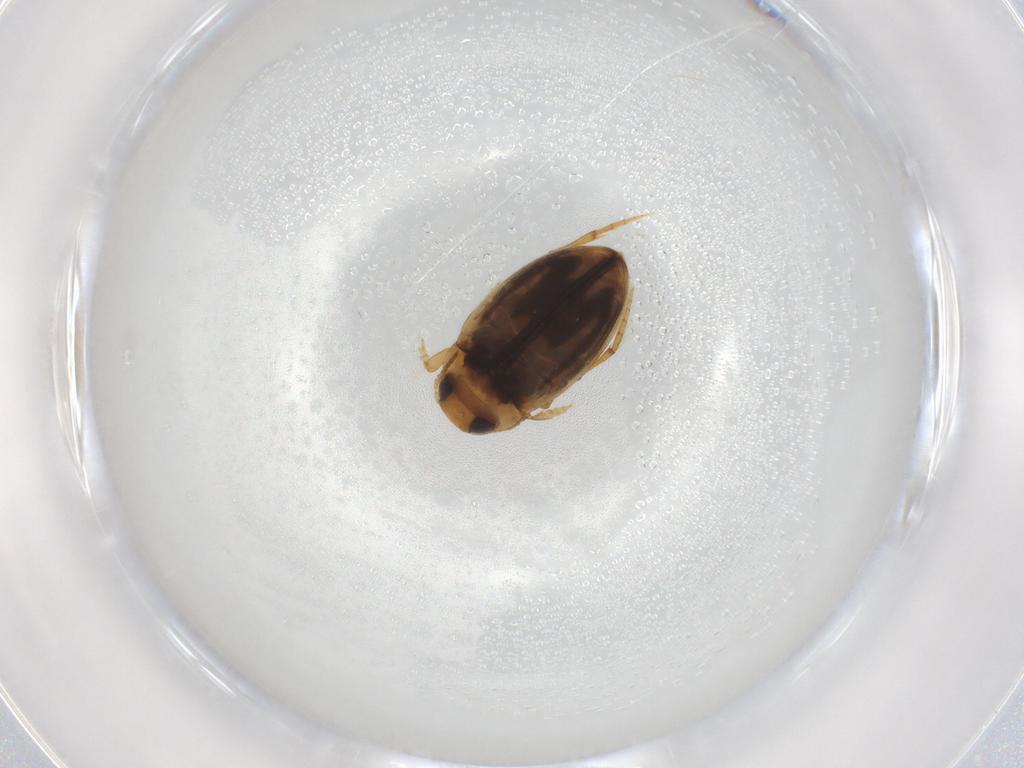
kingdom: Animalia
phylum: Arthropoda
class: Insecta
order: Coleoptera
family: Dytiscidae
